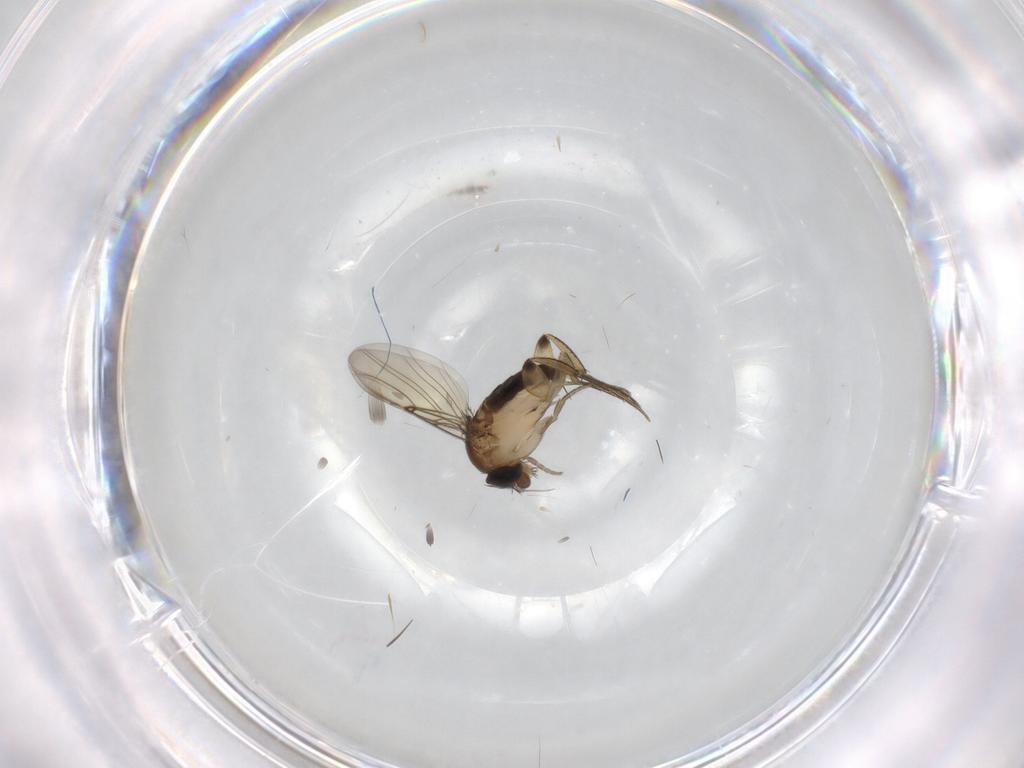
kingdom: Animalia
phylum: Arthropoda
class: Insecta
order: Diptera
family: Phoridae
